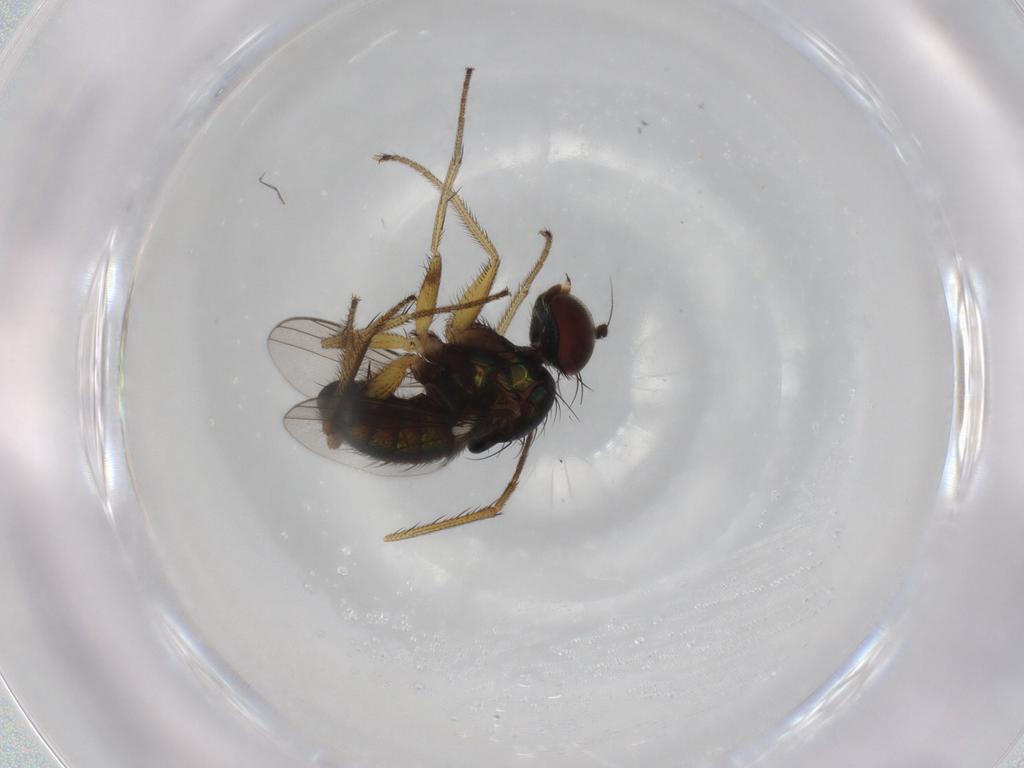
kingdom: Animalia
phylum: Arthropoda
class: Insecta
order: Diptera
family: Dolichopodidae
